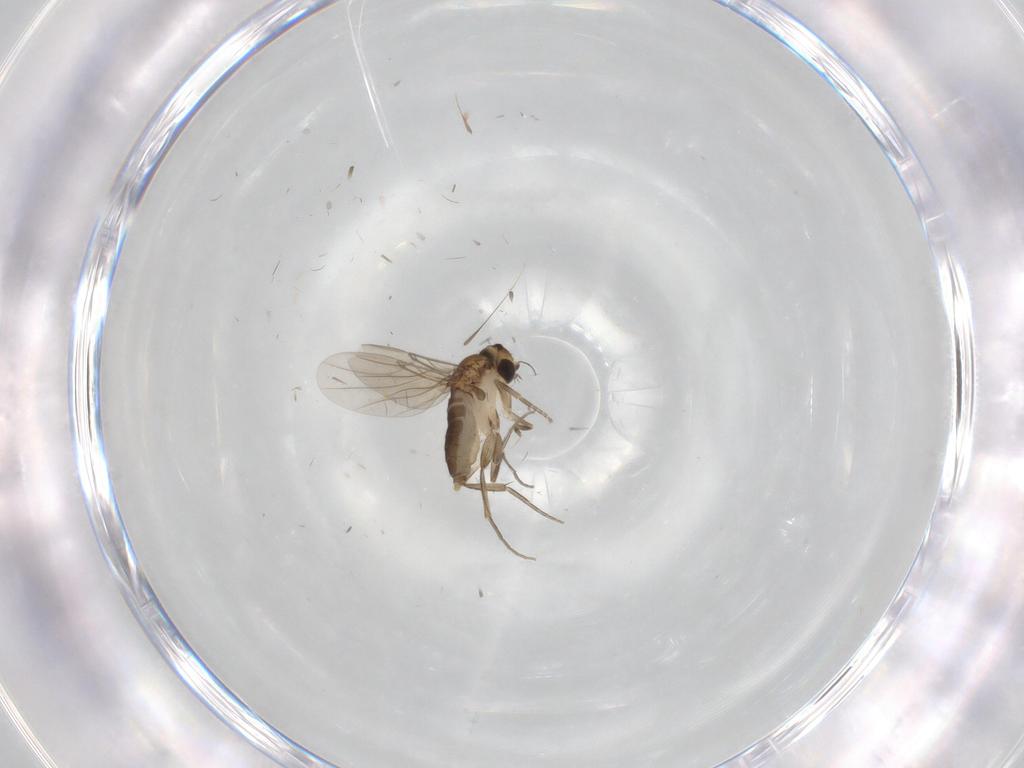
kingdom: Animalia
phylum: Arthropoda
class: Insecta
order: Diptera
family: Phoridae
